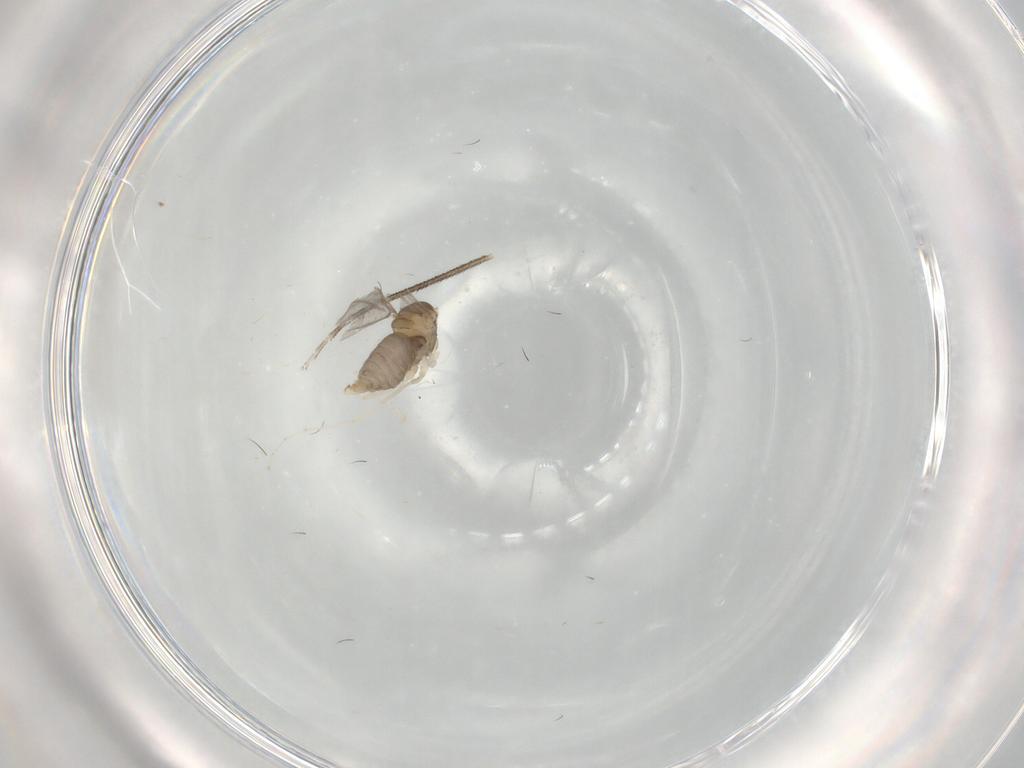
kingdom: Animalia
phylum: Arthropoda
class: Insecta
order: Diptera
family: Cecidomyiidae
